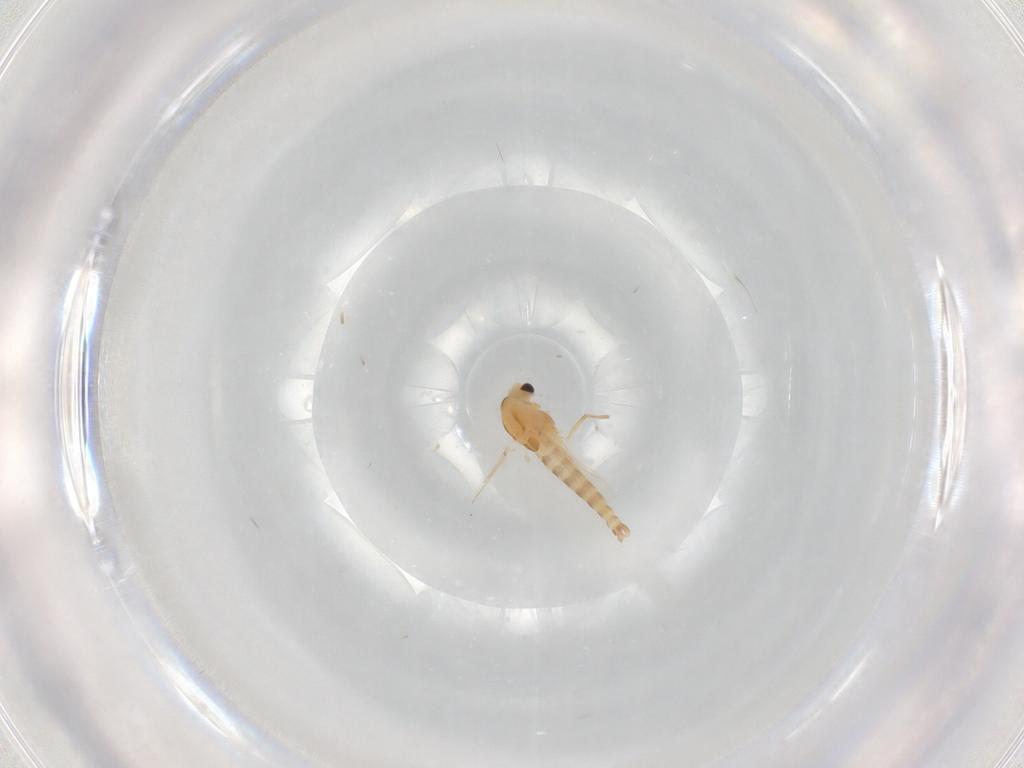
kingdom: Animalia
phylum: Arthropoda
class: Insecta
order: Diptera
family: Chironomidae
